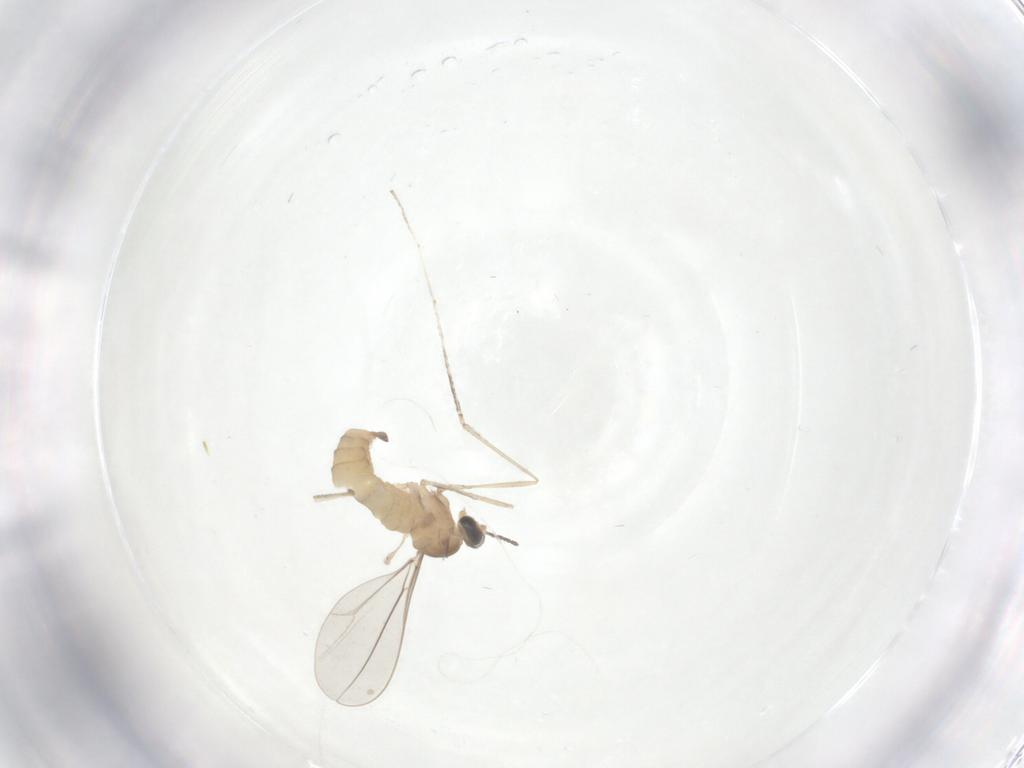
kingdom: Animalia
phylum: Arthropoda
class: Insecta
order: Diptera
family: Cecidomyiidae
